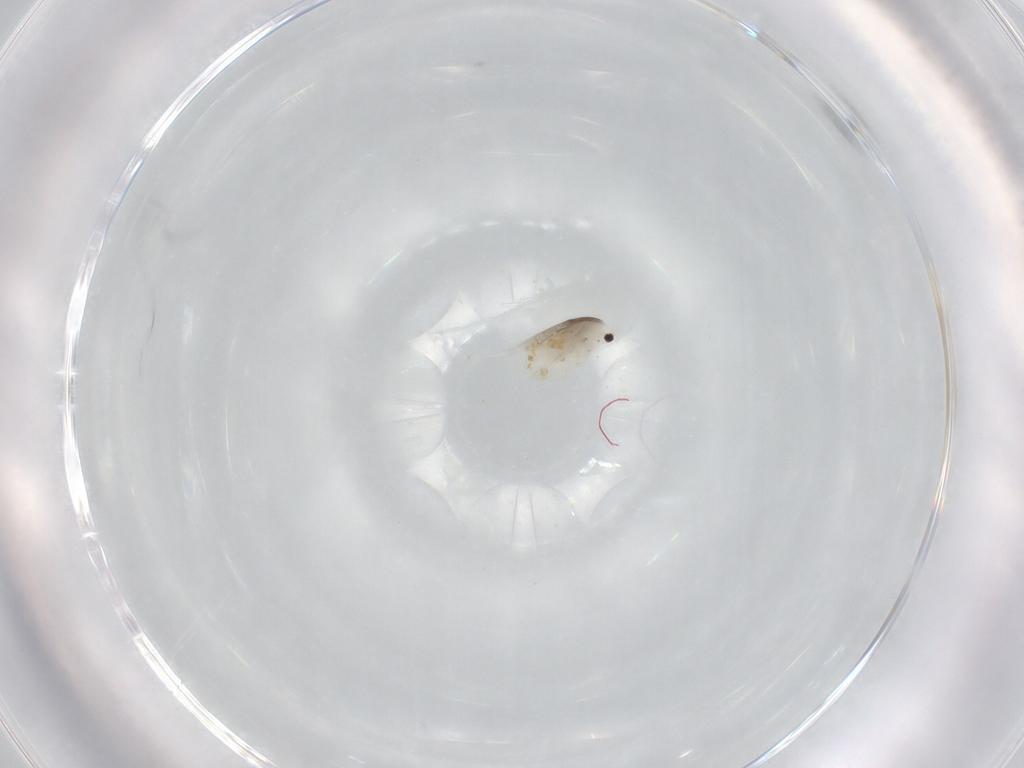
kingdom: Animalia
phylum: Arthropoda
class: Branchiopoda
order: Diplostraca
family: Daphniidae
